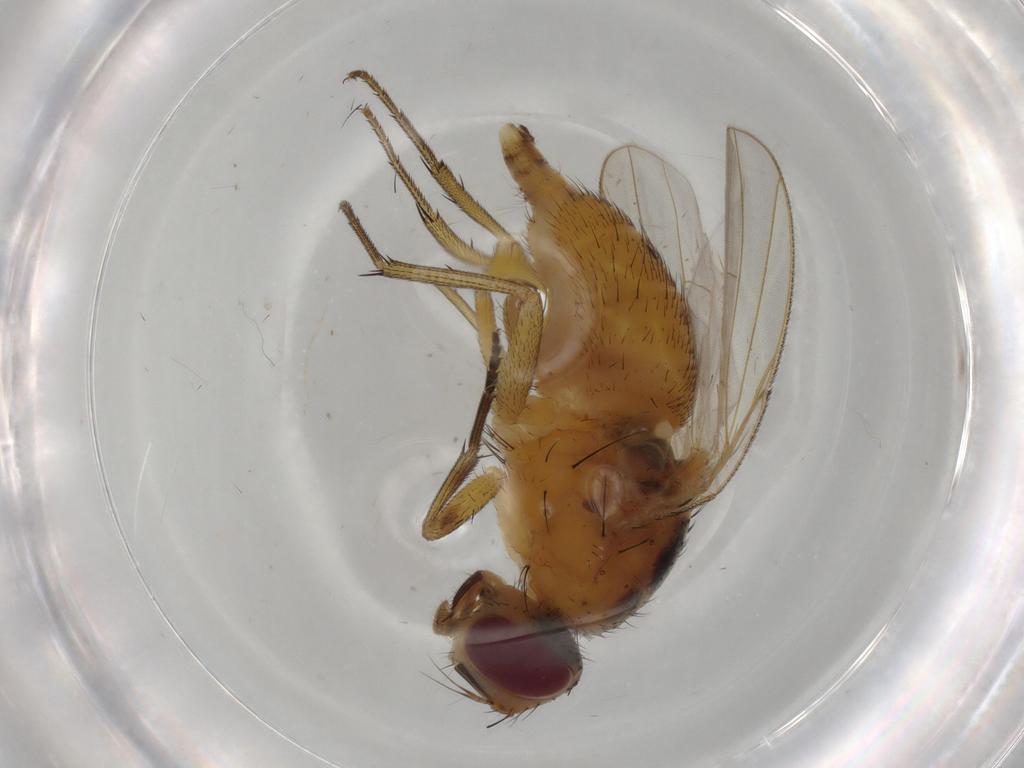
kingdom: Animalia
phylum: Arthropoda
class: Insecta
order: Diptera
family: Muscidae
